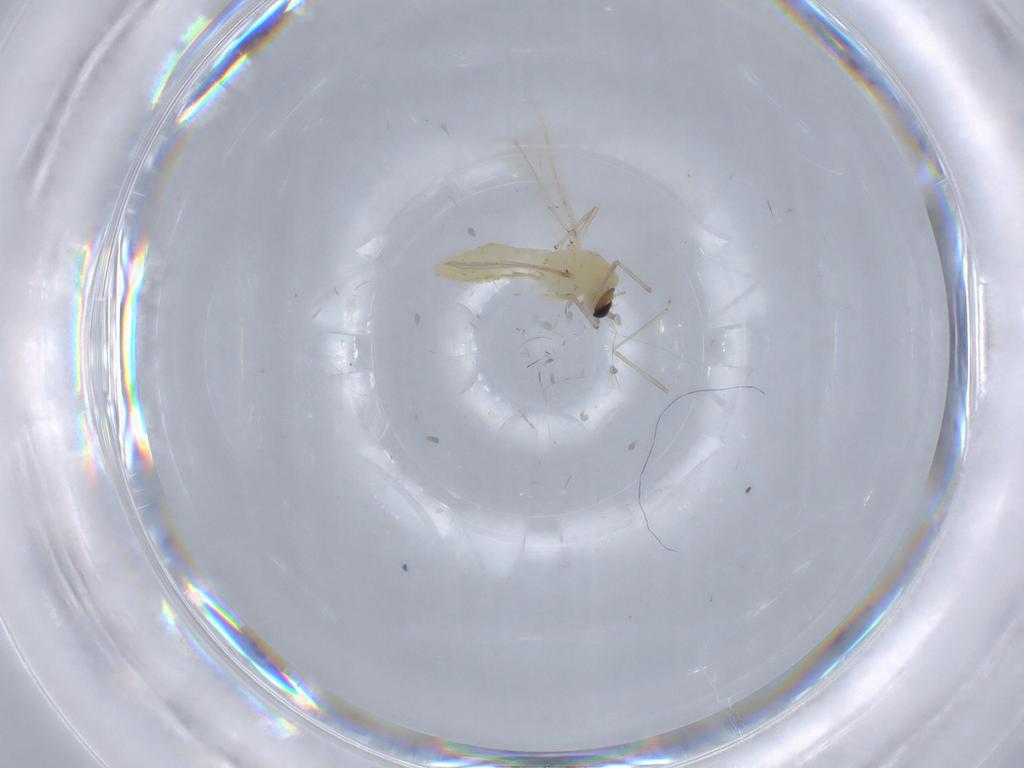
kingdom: Animalia
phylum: Arthropoda
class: Insecta
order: Diptera
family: Chironomidae
